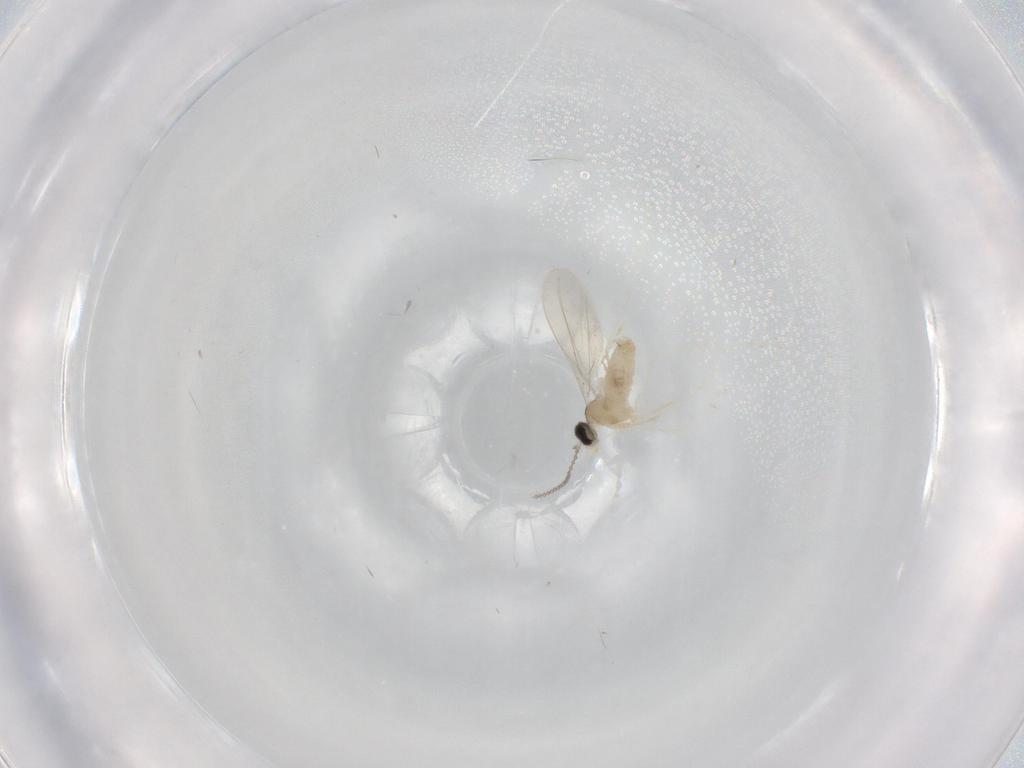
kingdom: Animalia
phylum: Arthropoda
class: Insecta
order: Diptera
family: Cecidomyiidae
